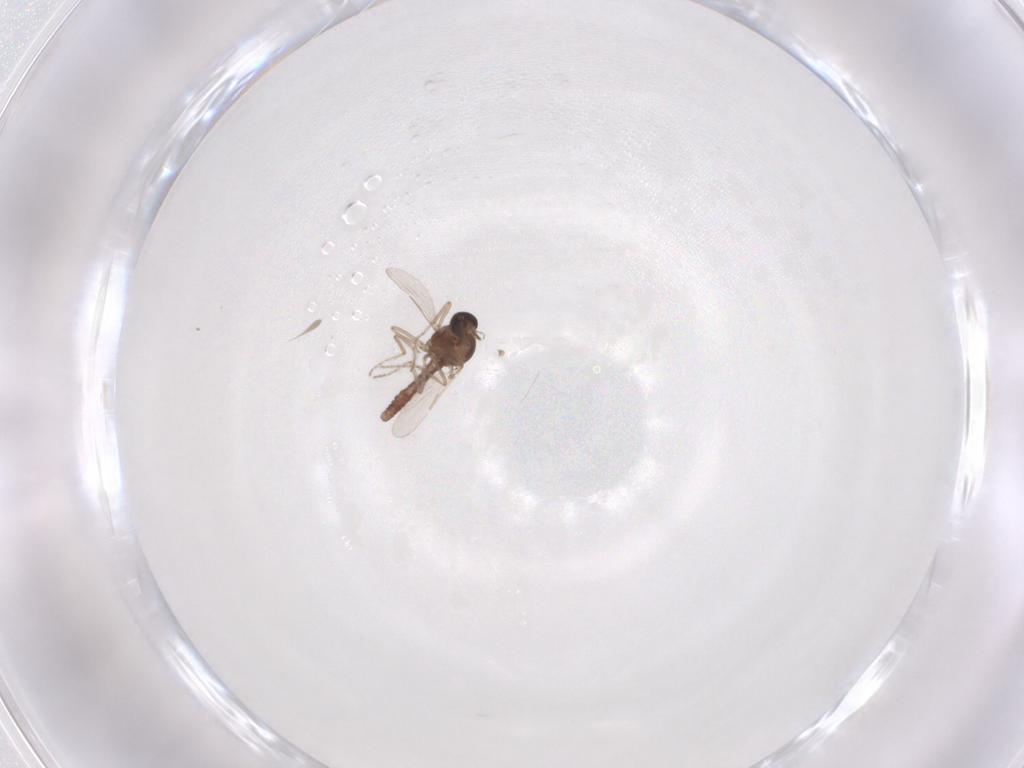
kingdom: Animalia
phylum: Arthropoda
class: Insecta
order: Diptera
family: Ceratopogonidae
